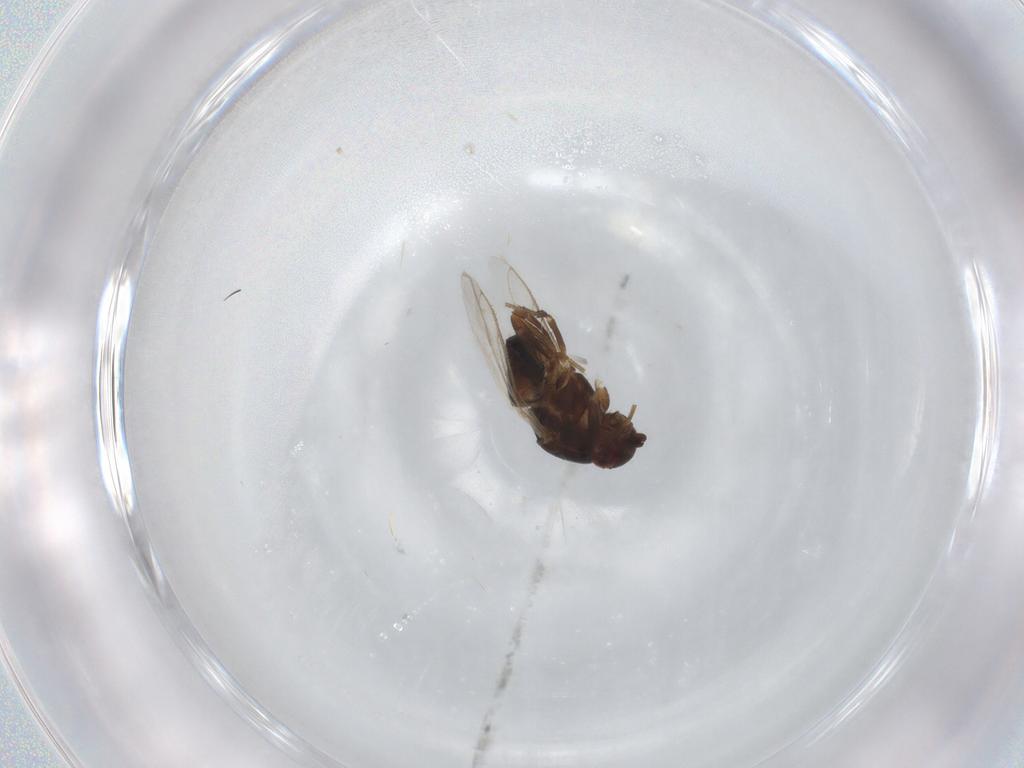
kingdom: Animalia
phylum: Arthropoda
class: Insecta
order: Diptera
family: Sphaeroceridae
